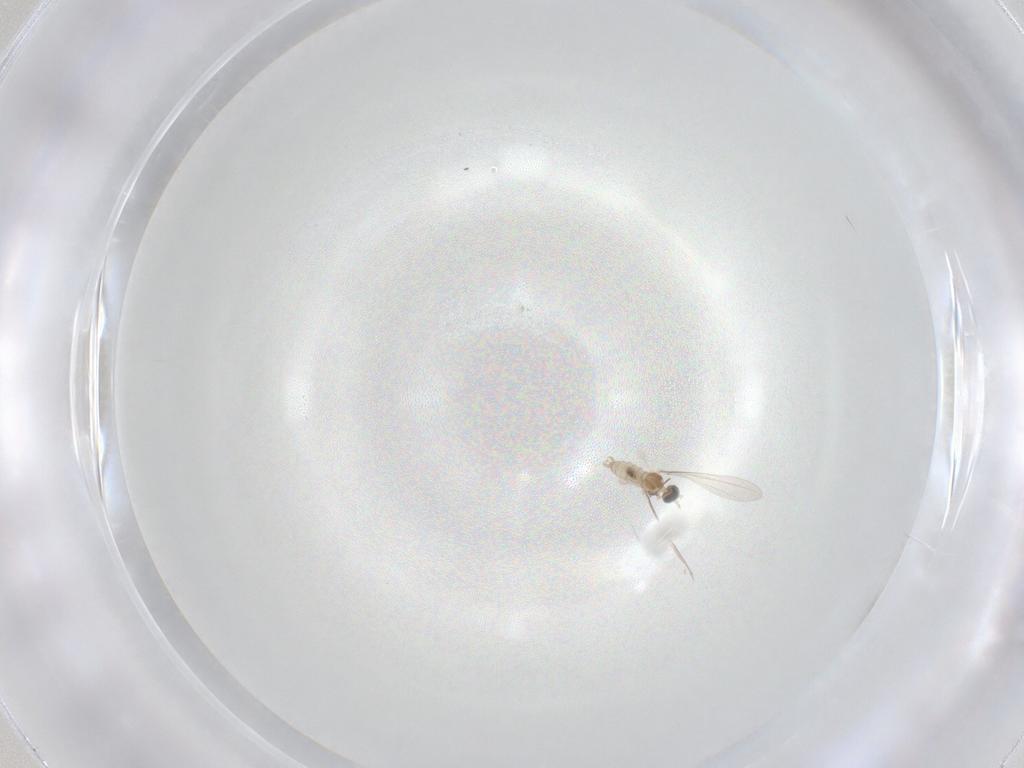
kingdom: Animalia
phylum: Arthropoda
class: Insecta
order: Diptera
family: Cecidomyiidae
